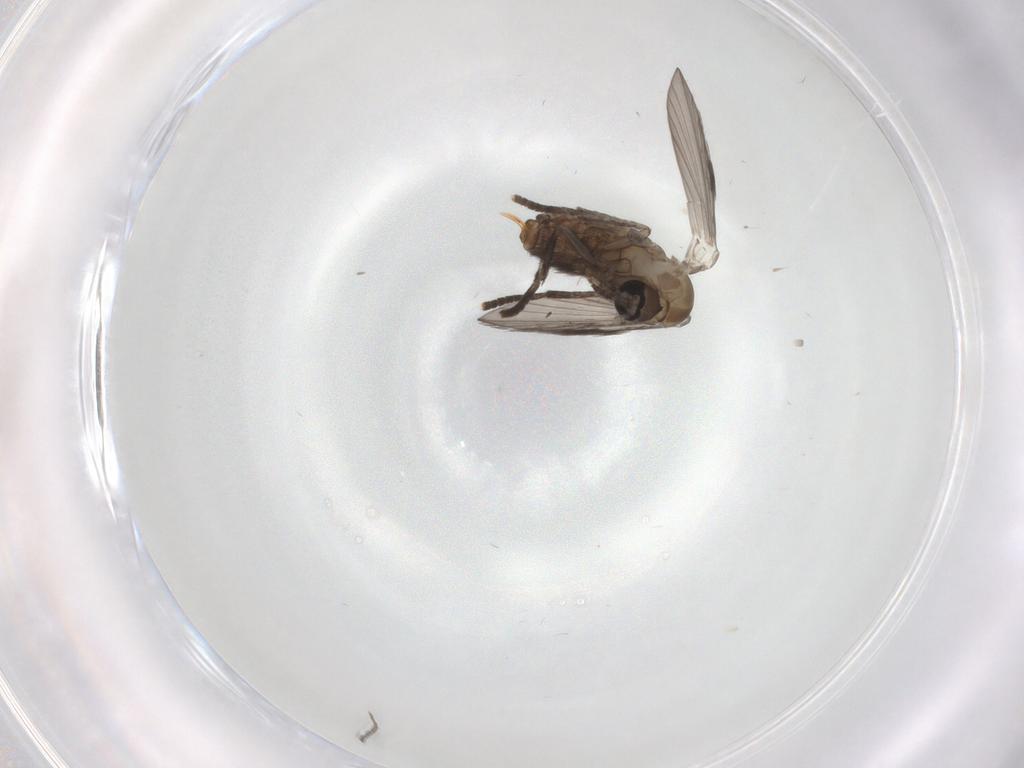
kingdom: Animalia
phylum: Arthropoda
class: Insecta
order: Diptera
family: Psychodidae
